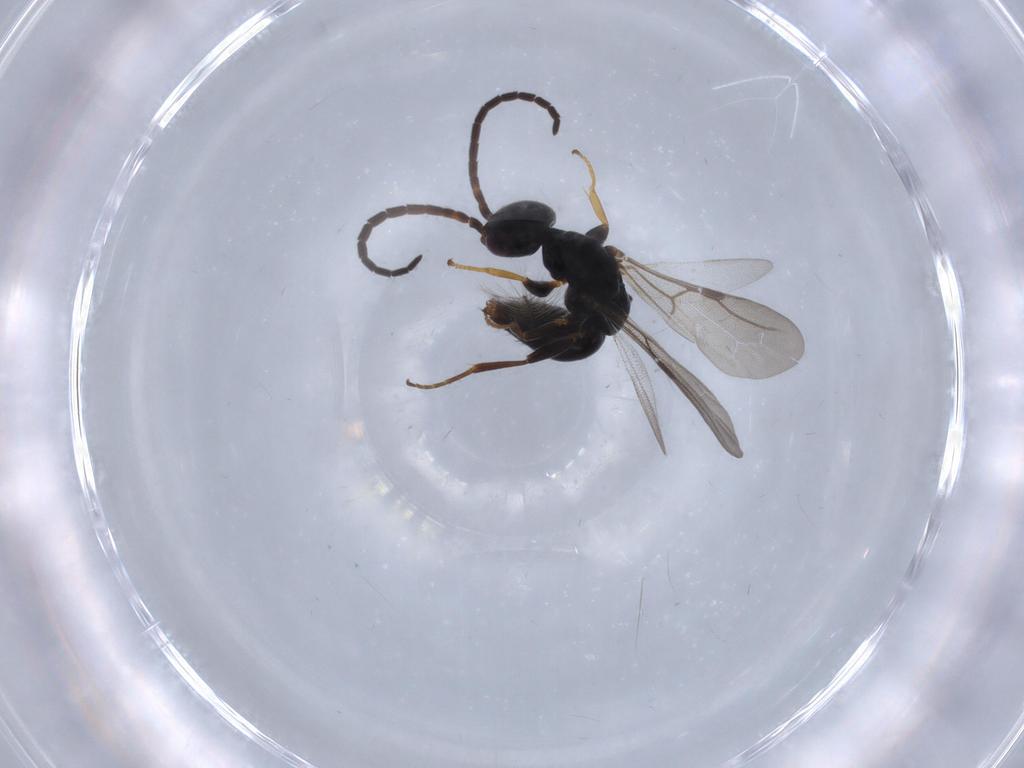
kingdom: Animalia
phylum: Arthropoda
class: Insecta
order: Hymenoptera
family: Bethylidae
